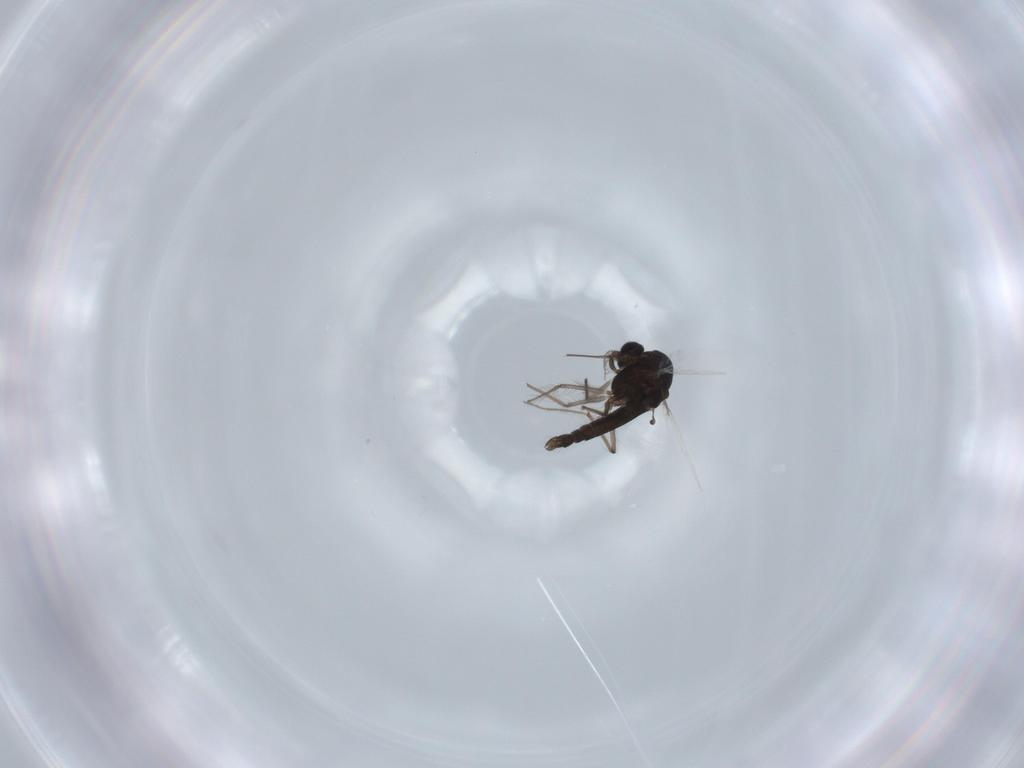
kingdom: Animalia
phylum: Arthropoda
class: Insecta
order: Diptera
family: Chironomidae
